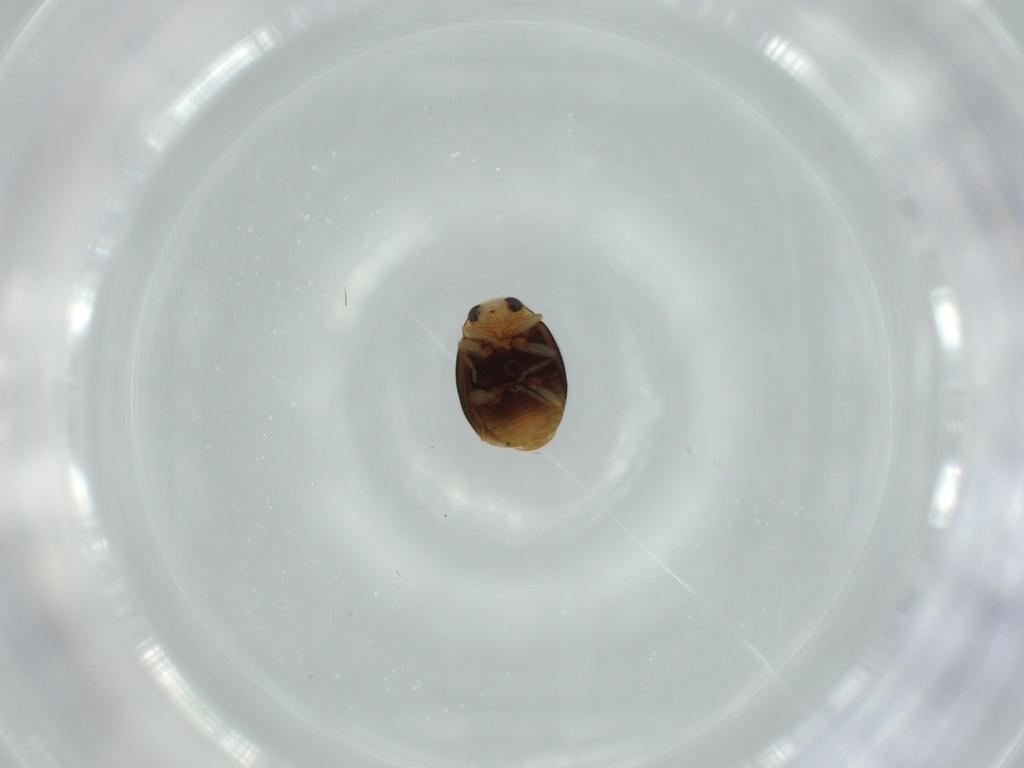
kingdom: Animalia
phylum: Arthropoda
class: Insecta
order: Coleoptera
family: Coccinellidae
